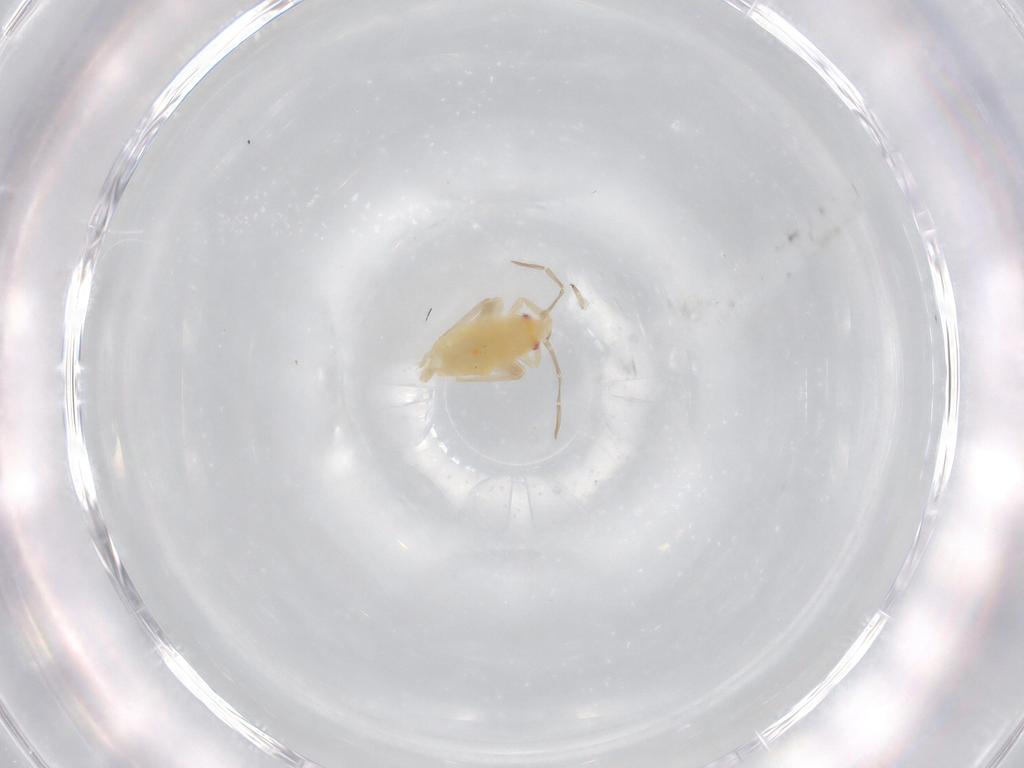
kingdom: Animalia
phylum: Arthropoda
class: Insecta
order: Hemiptera
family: Miridae
